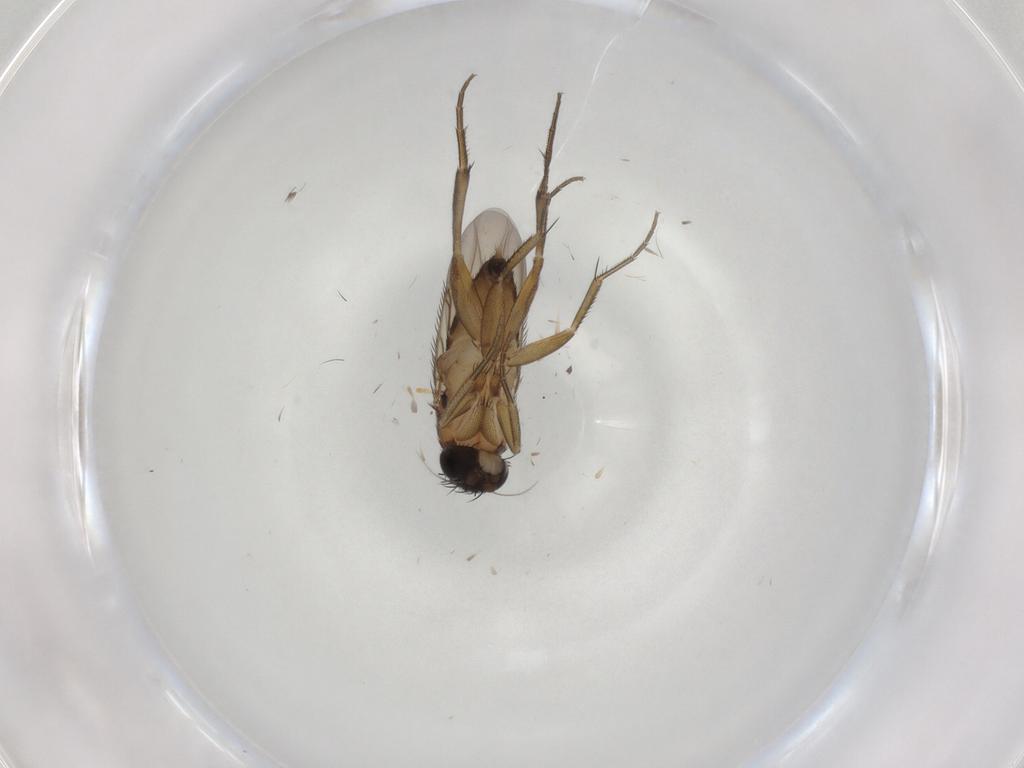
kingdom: Animalia
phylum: Arthropoda
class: Insecta
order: Diptera
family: Phoridae
